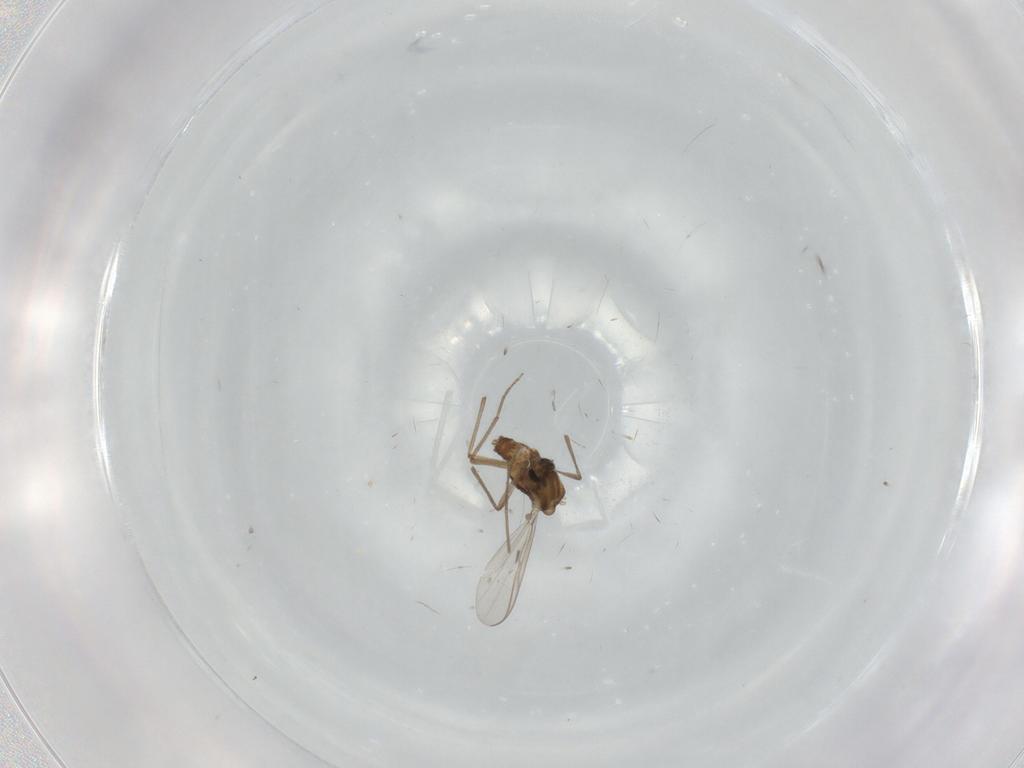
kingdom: Animalia
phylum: Arthropoda
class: Insecta
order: Diptera
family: Chironomidae
